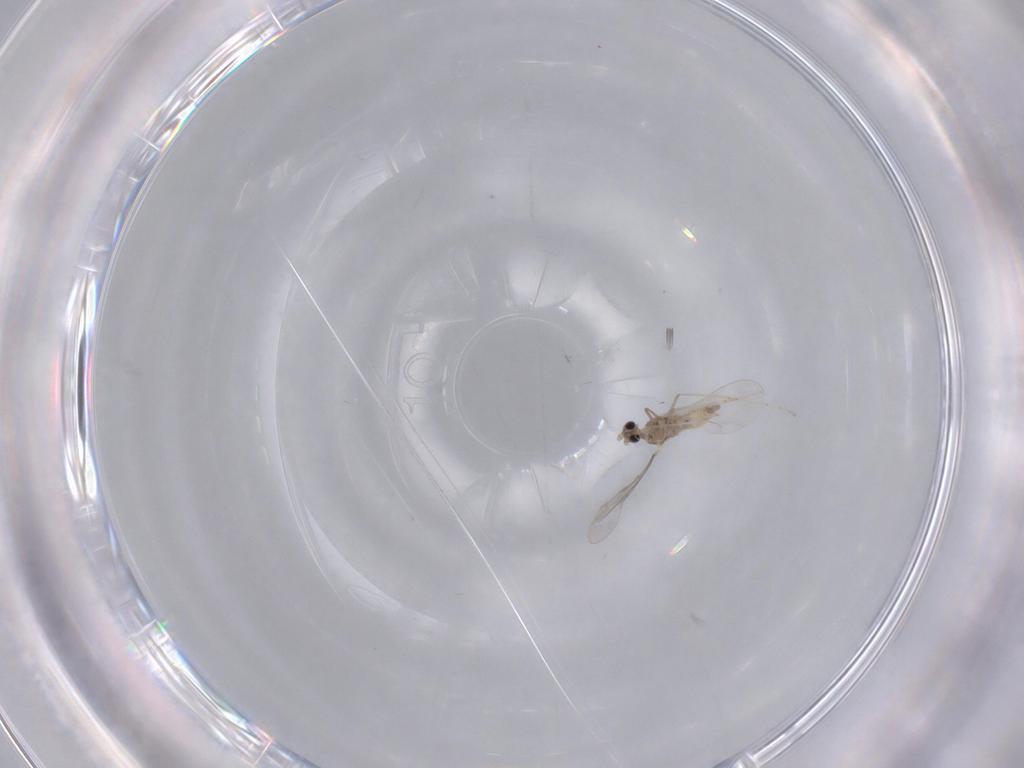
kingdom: Animalia
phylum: Arthropoda
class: Insecta
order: Diptera
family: Cecidomyiidae
